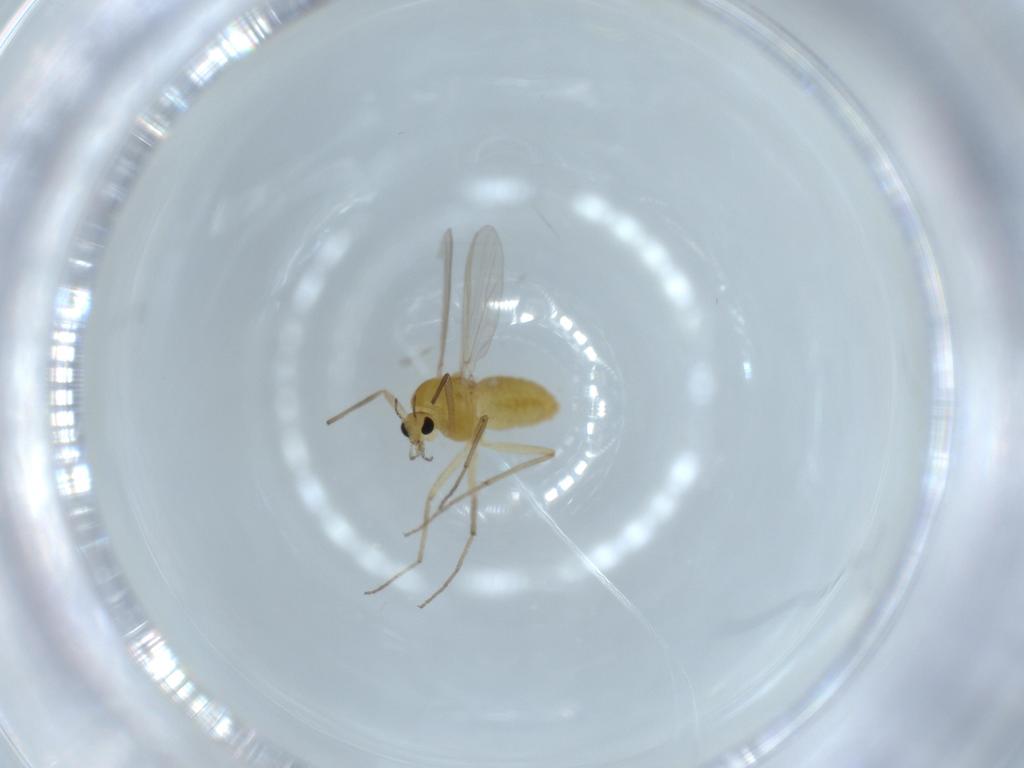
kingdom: Animalia
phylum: Arthropoda
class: Insecta
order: Diptera
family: Chironomidae
